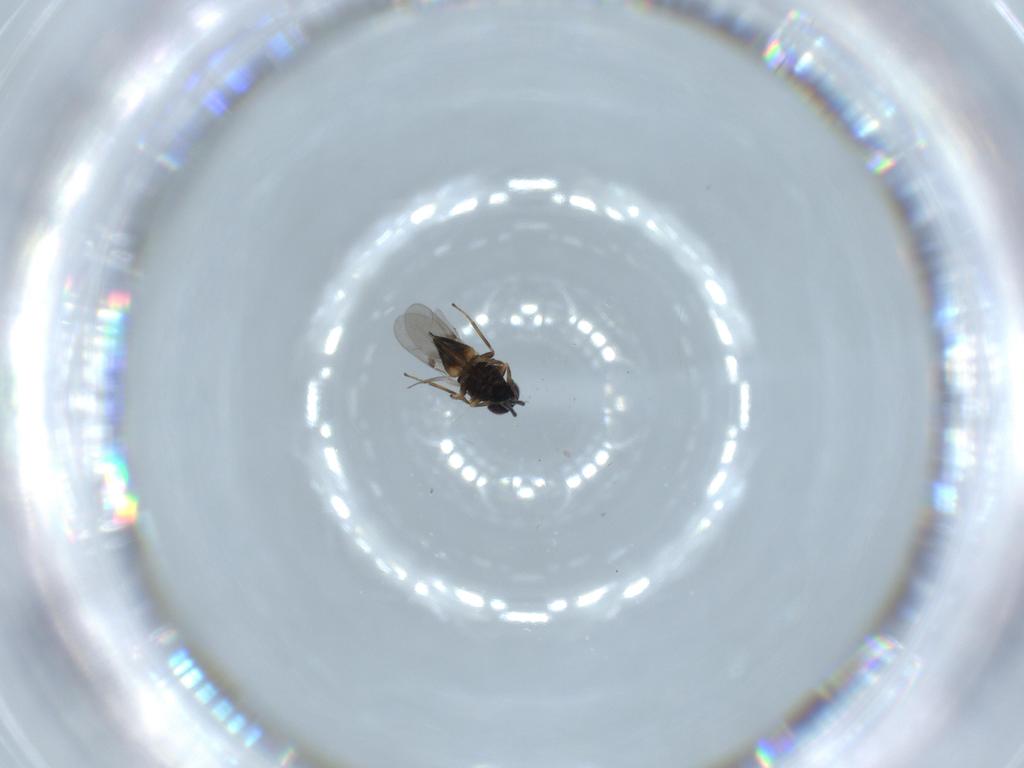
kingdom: Animalia
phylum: Arthropoda
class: Insecta
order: Hymenoptera
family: Encyrtidae
